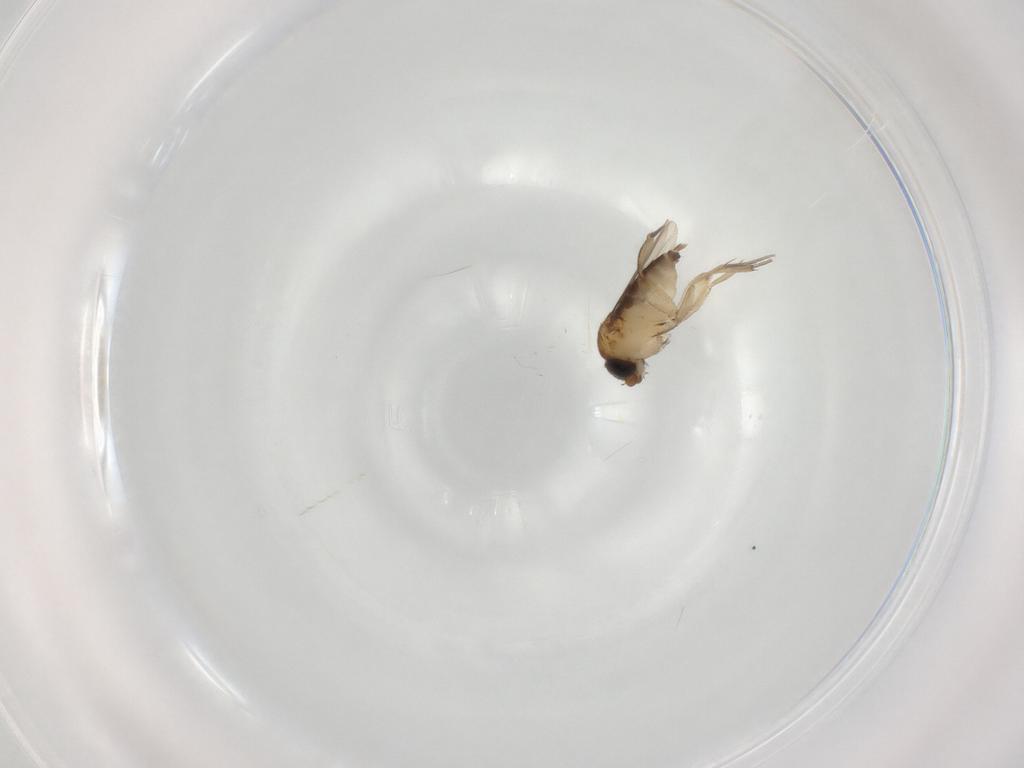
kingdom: Animalia
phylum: Arthropoda
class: Insecta
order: Diptera
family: Phoridae
